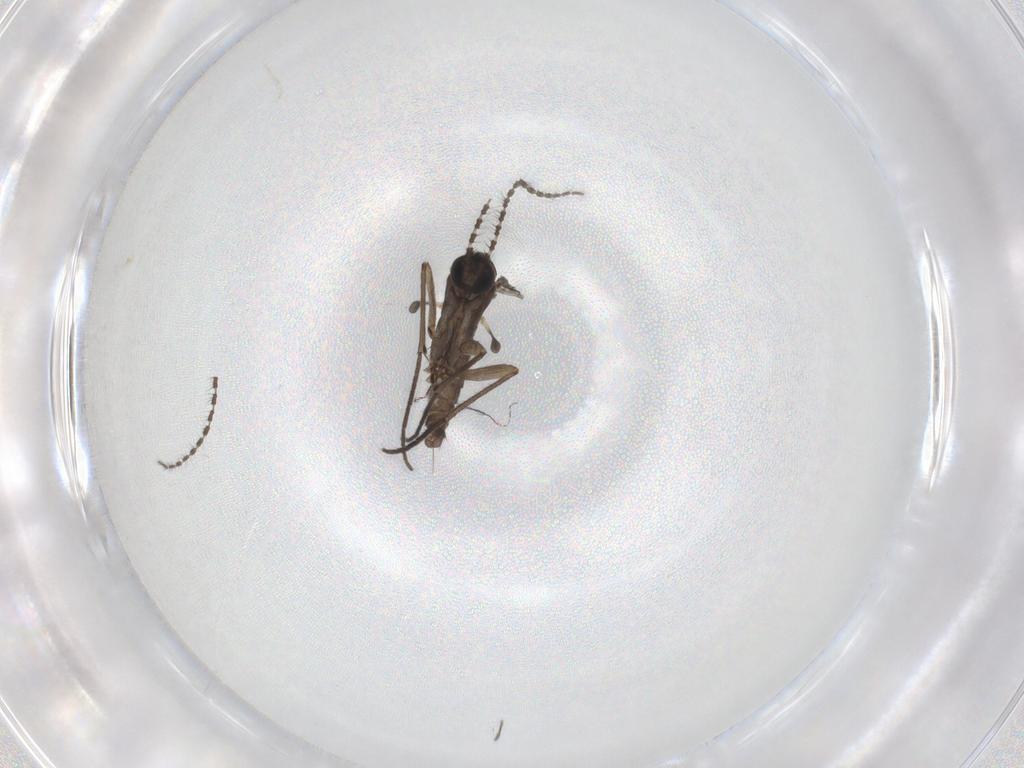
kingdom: Animalia
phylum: Arthropoda
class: Insecta
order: Diptera
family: Sciaridae
